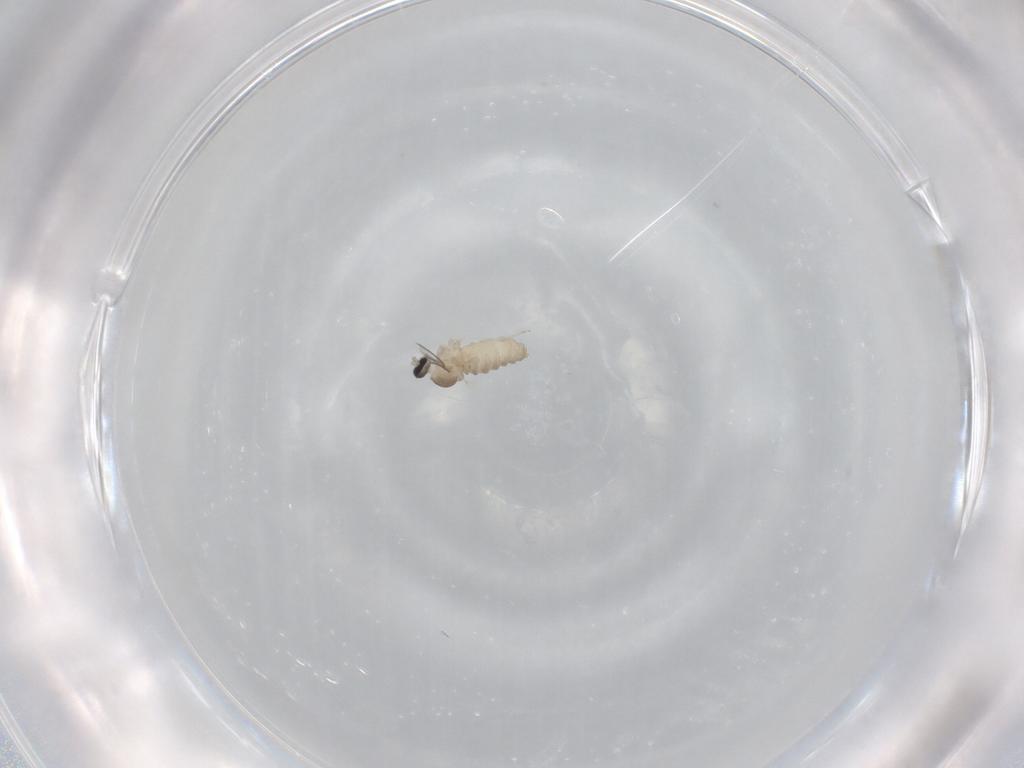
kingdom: Animalia
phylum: Arthropoda
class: Insecta
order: Diptera
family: Cecidomyiidae
